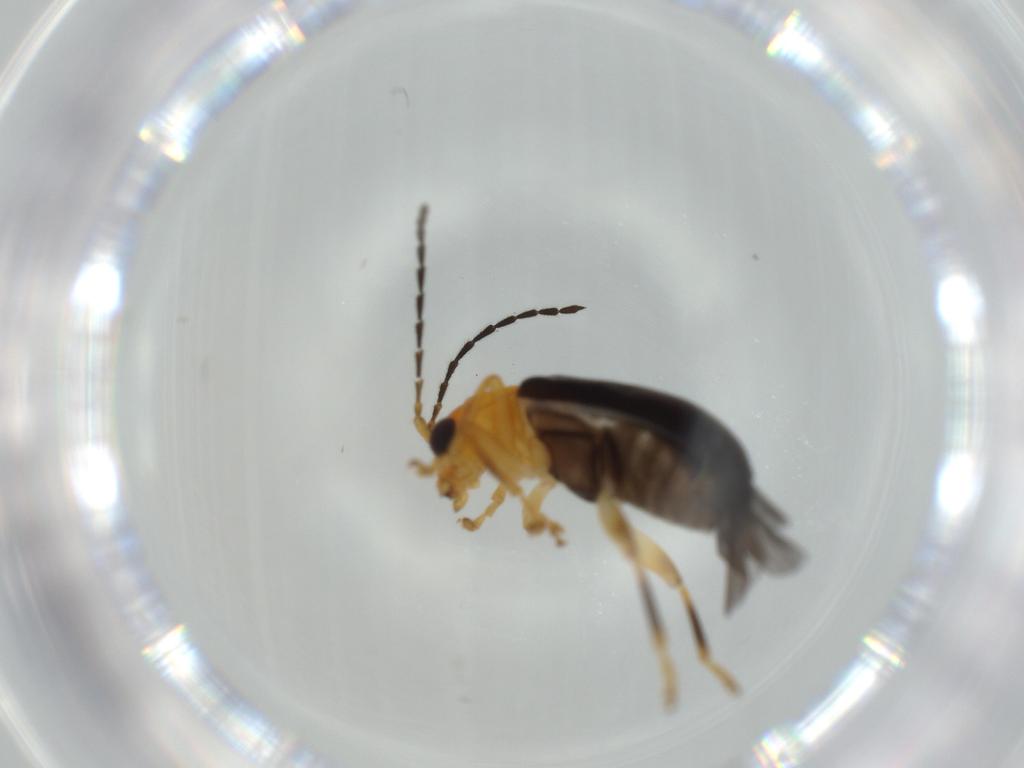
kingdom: Animalia
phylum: Arthropoda
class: Insecta
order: Coleoptera
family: Chrysomelidae
